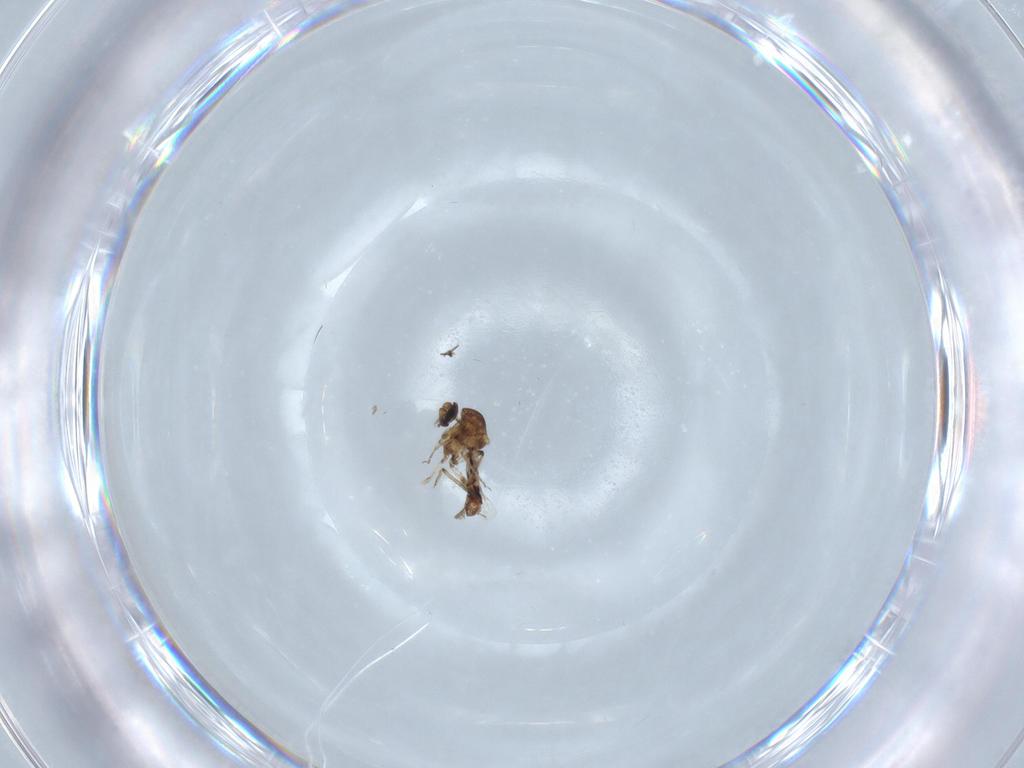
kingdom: Animalia
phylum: Arthropoda
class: Insecta
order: Diptera
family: Ceratopogonidae
